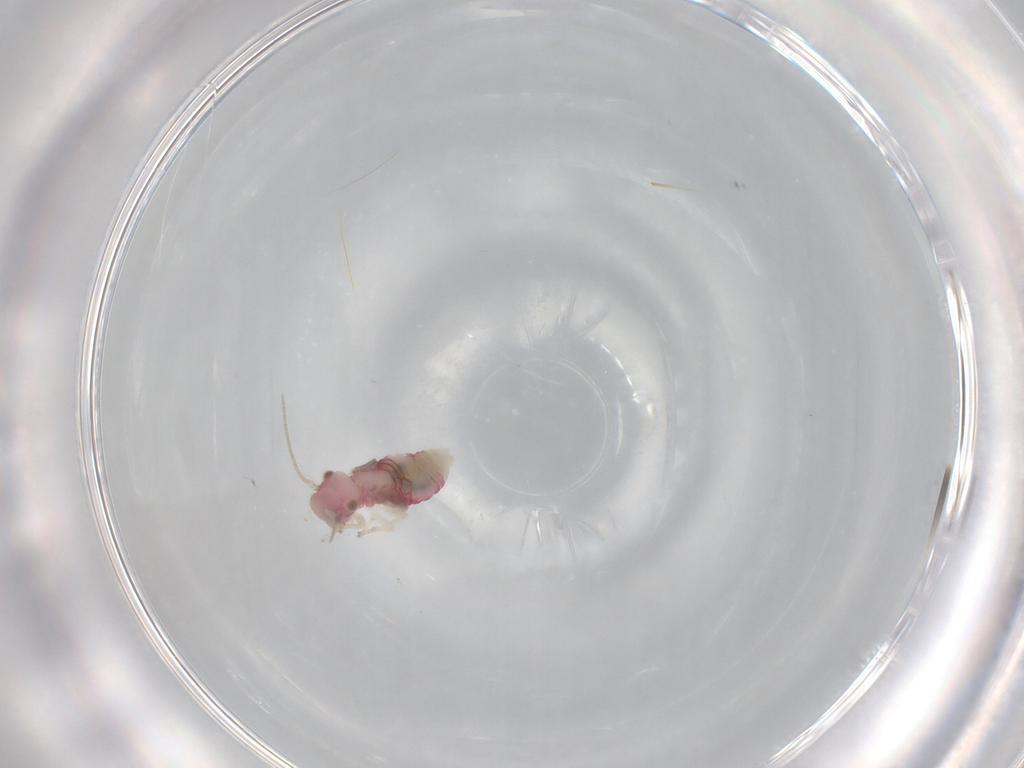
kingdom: Animalia
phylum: Arthropoda
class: Insecta
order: Psocodea
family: Caeciliusidae
